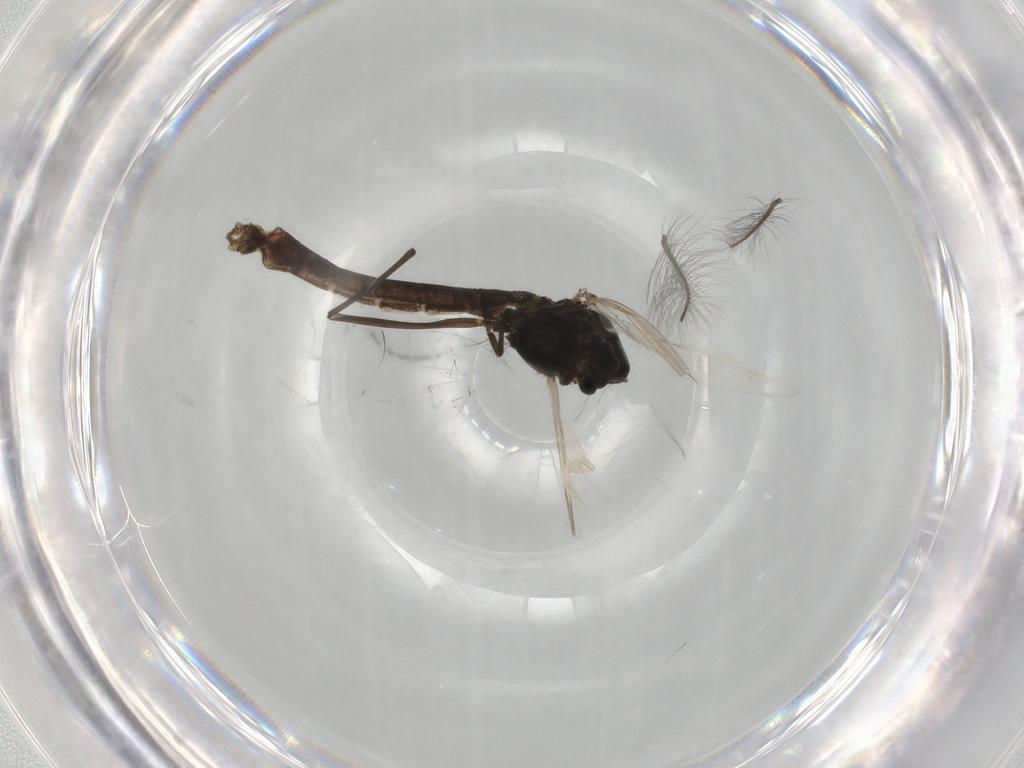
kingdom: Animalia
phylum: Arthropoda
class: Insecta
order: Diptera
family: Chironomidae
